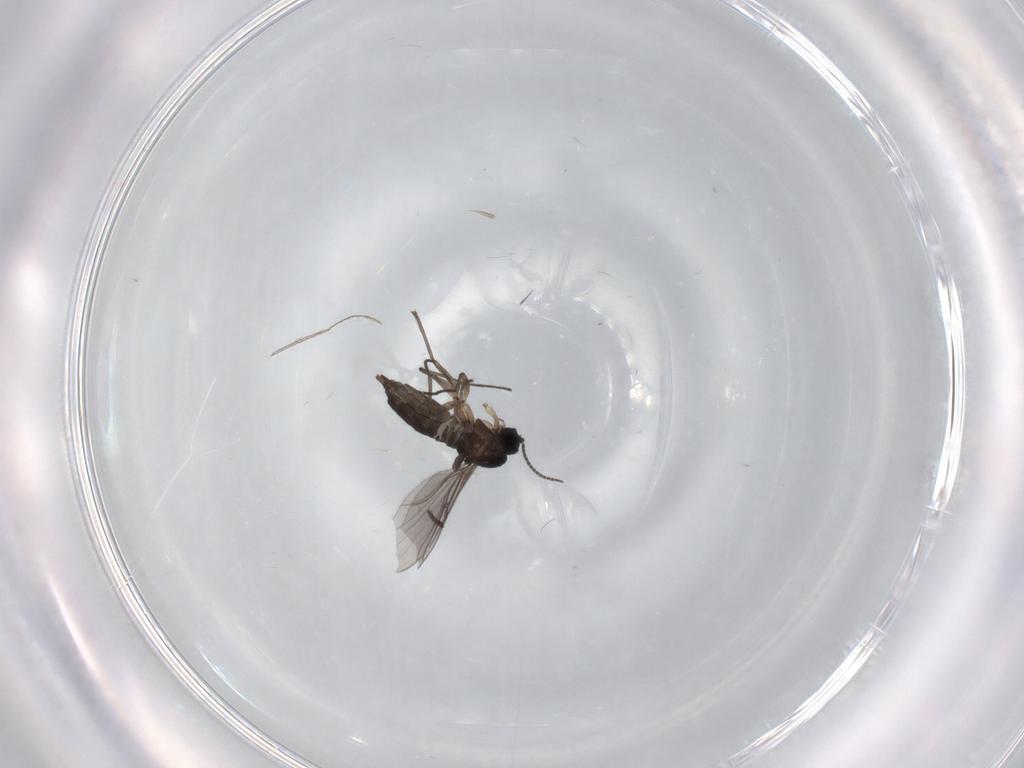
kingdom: Animalia
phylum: Arthropoda
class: Insecta
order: Diptera
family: Sciaridae
